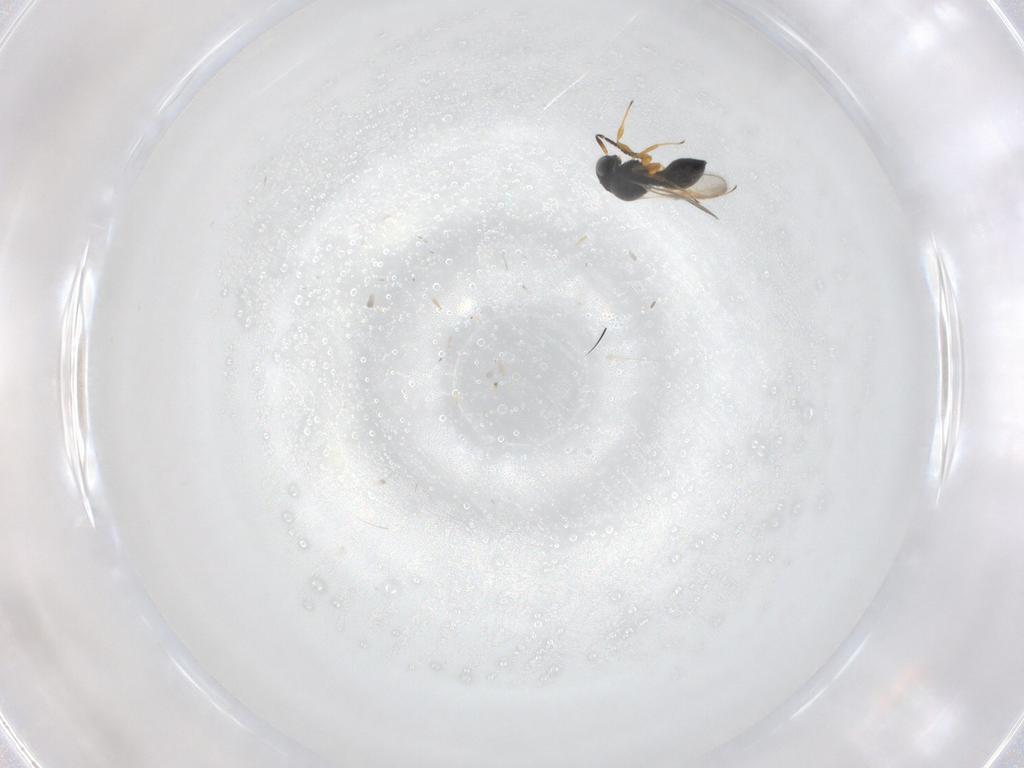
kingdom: Animalia
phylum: Arthropoda
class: Insecta
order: Hymenoptera
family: Scelionidae
